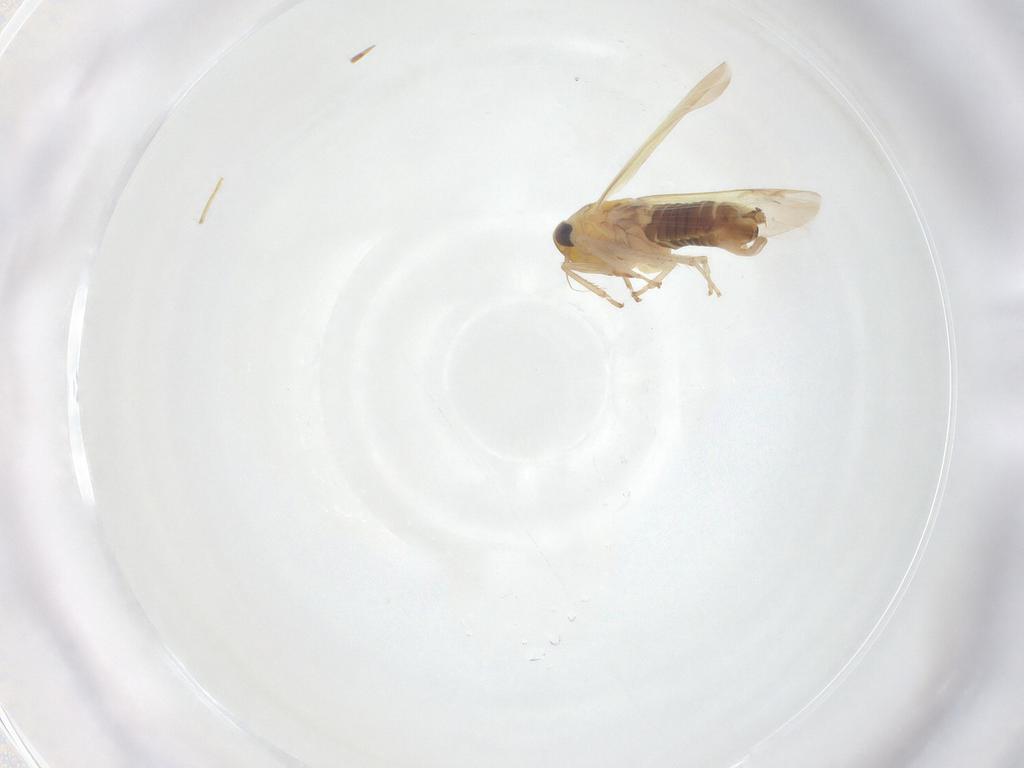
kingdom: Animalia
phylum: Arthropoda
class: Insecta
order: Hemiptera
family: Cicadellidae
